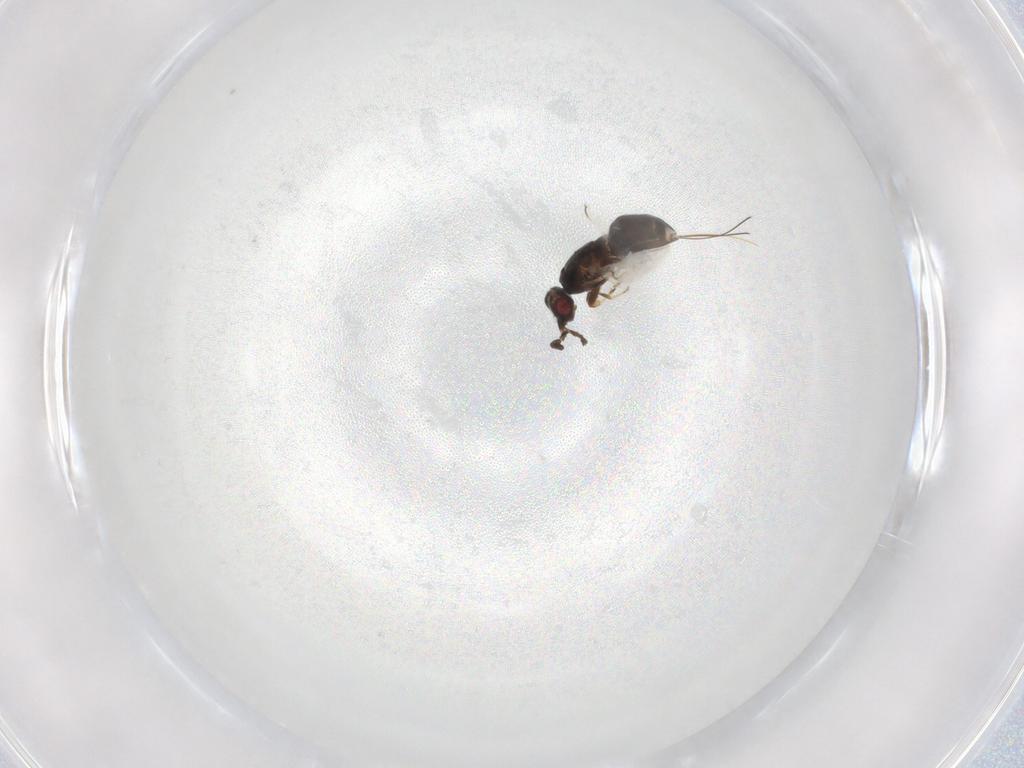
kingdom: Animalia
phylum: Arthropoda
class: Insecta
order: Hymenoptera
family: Agaonidae
